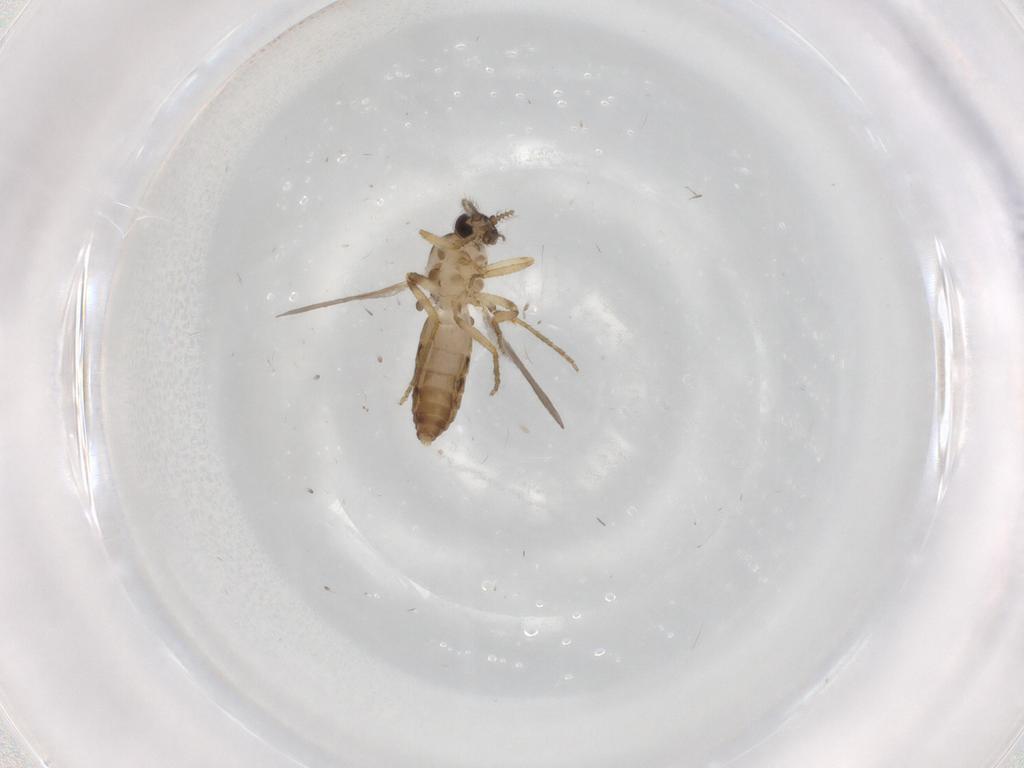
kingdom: Animalia
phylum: Arthropoda
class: Insecta
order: Diptera
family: Ceratopogonidae
